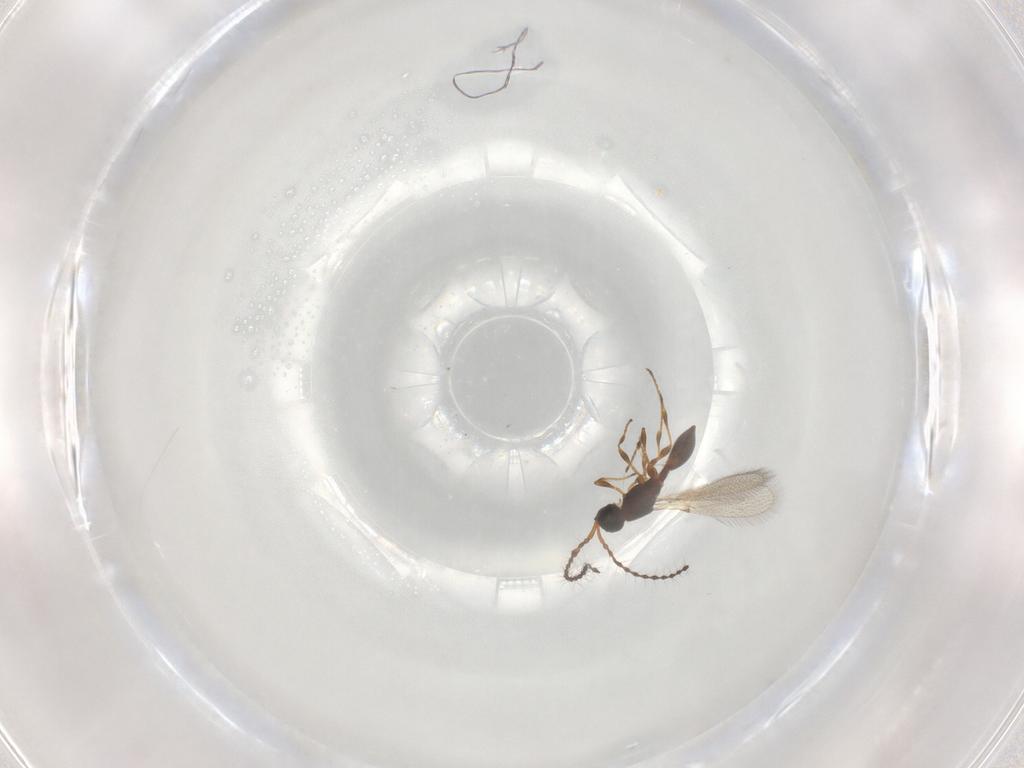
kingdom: Animalia
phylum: Arthropoda
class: Insecta
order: Hymenoptera
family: Diapriidae
